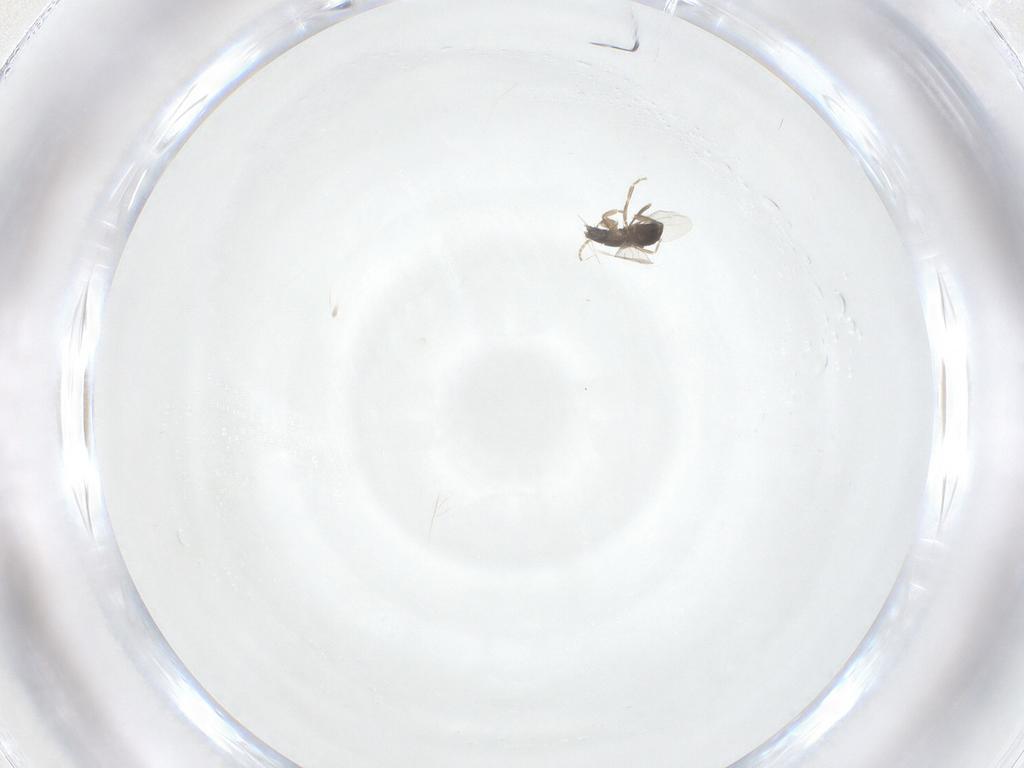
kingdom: Animalia
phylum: Arthropoda
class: Insecta
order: Diptera
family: Phoridae
